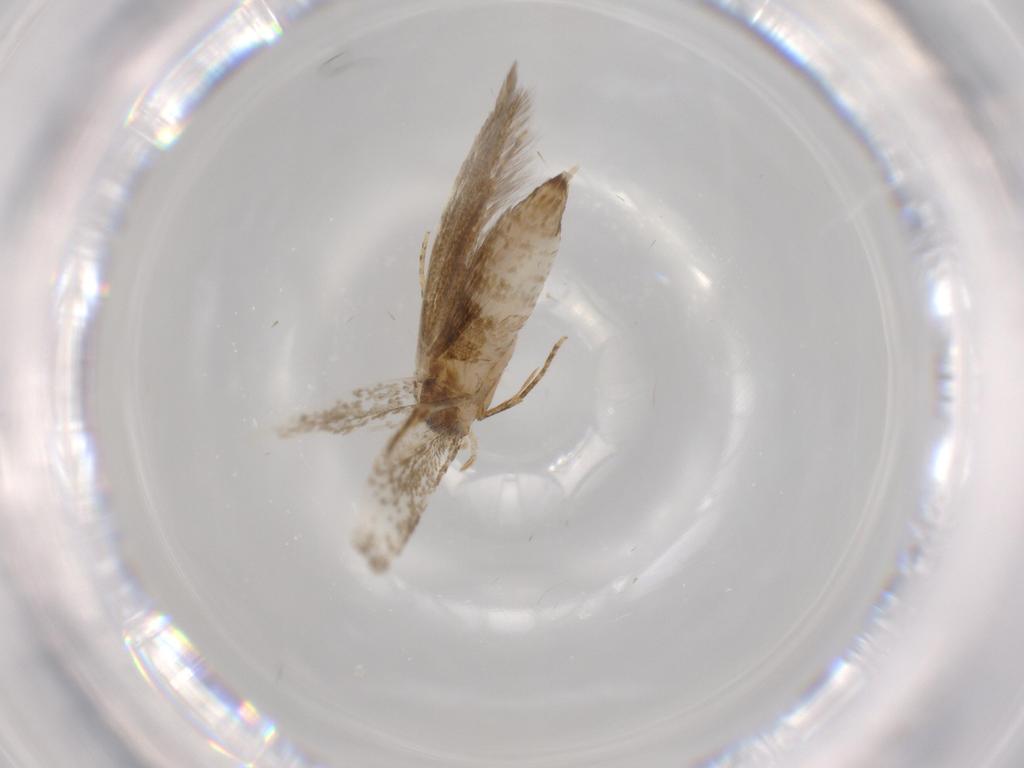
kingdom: Animalia
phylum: Arthropoda
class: Insecta
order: Lepidoptera
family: Tineidae
